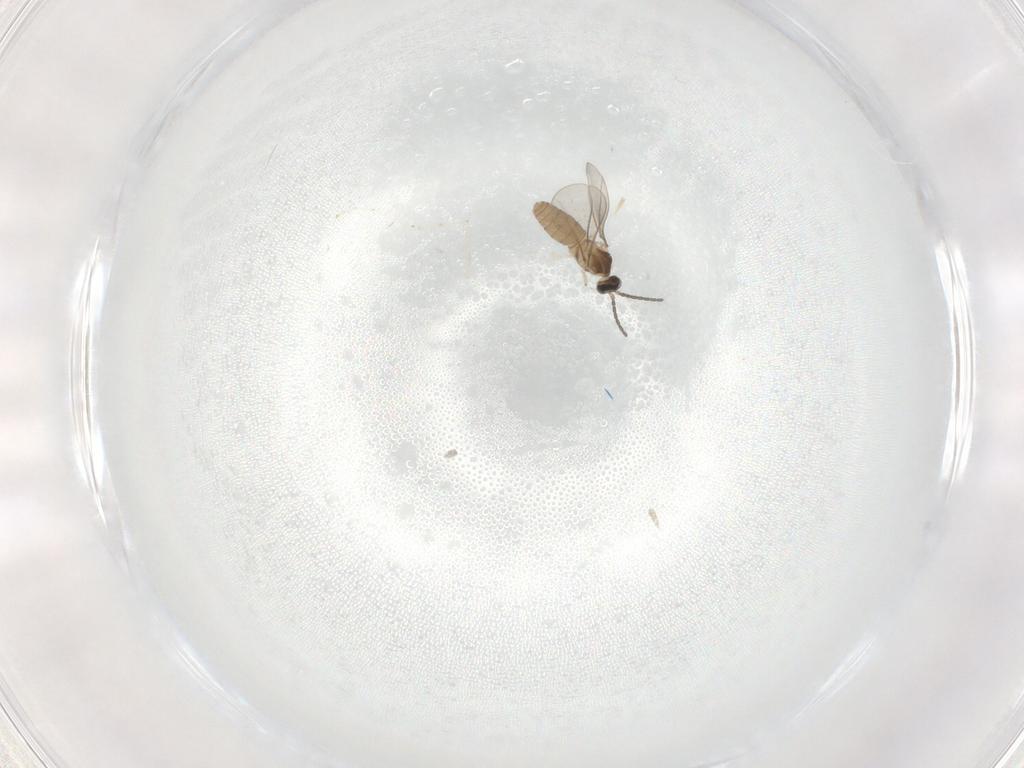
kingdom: Animalia
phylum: Arthropoda
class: Insecta
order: Diptera
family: Cecidomyiidae
